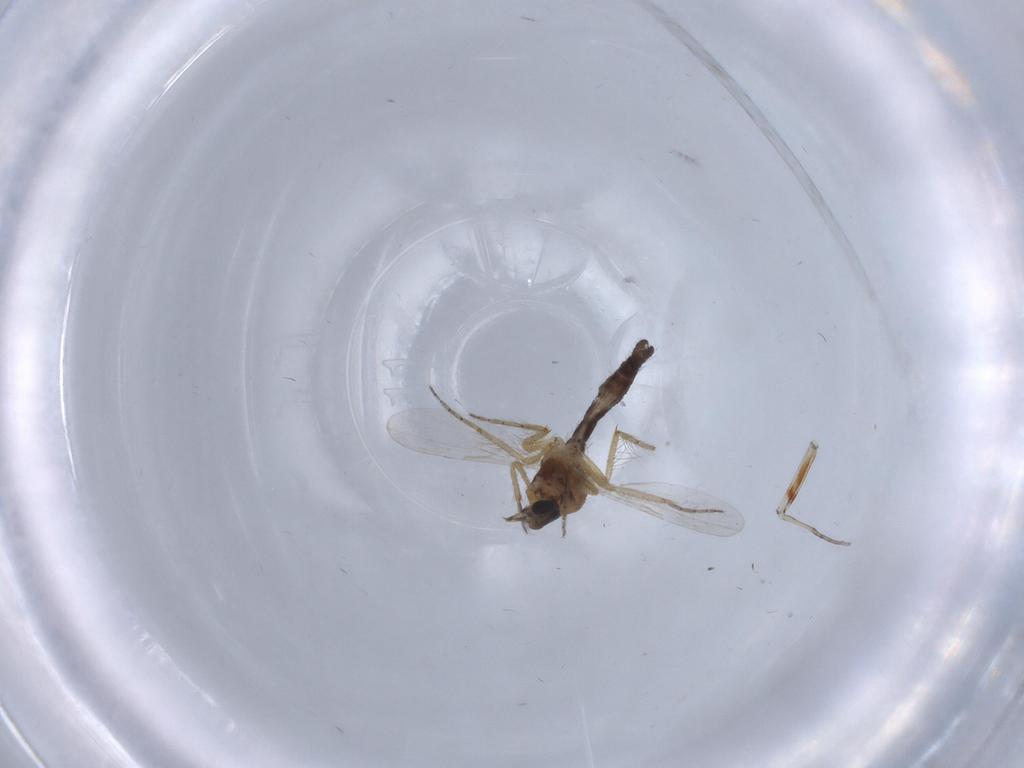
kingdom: Animalia
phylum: Arthropoda
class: Insecta
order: Diptera
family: Ceratopogonidae
